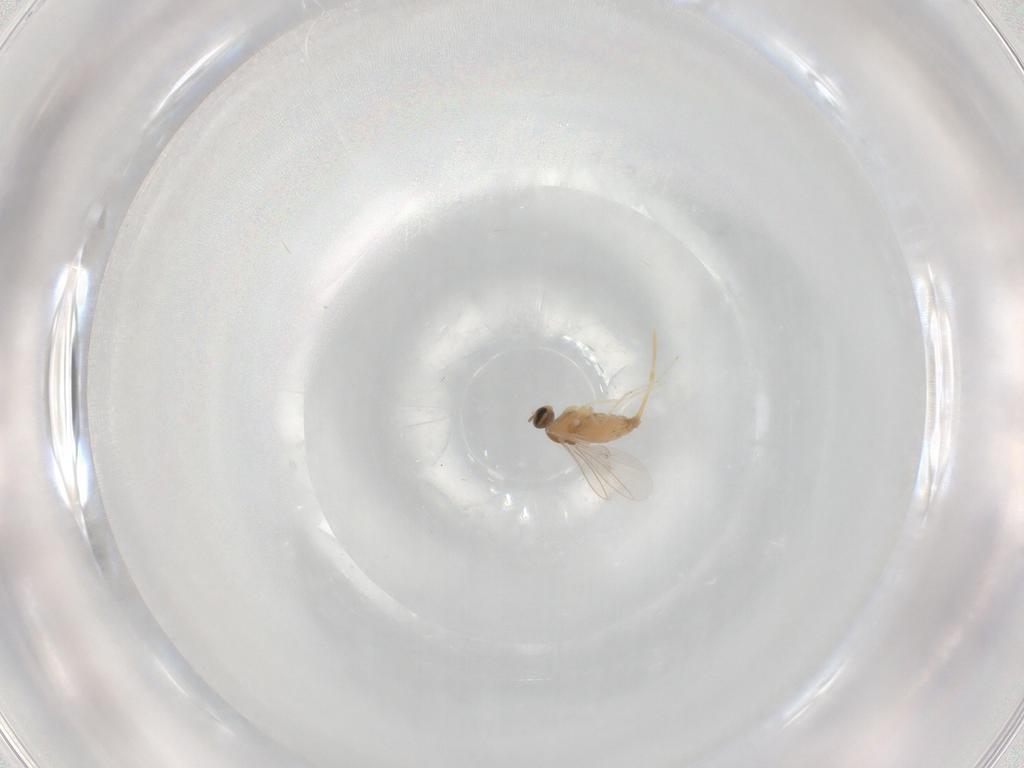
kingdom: Animalia
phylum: Arthropoda
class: Insecta
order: Diptera
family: Cecidomyiidae
